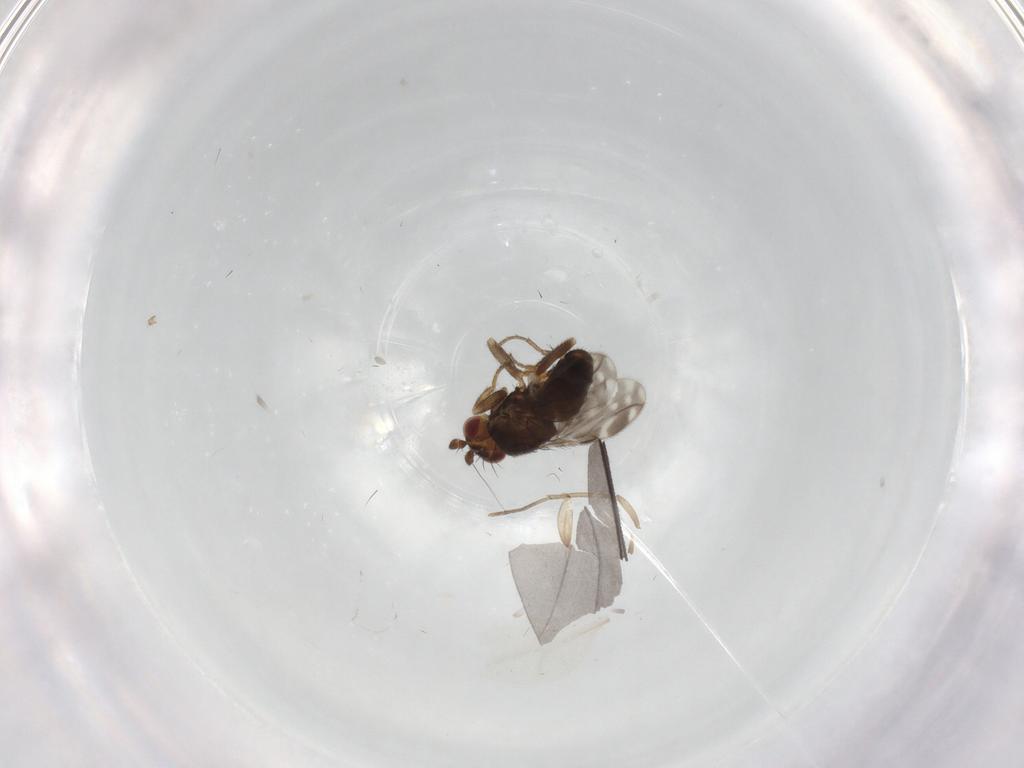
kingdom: Animalia
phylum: Arthropoda
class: Insecta
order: Diptera
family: Sphaeroceridae
